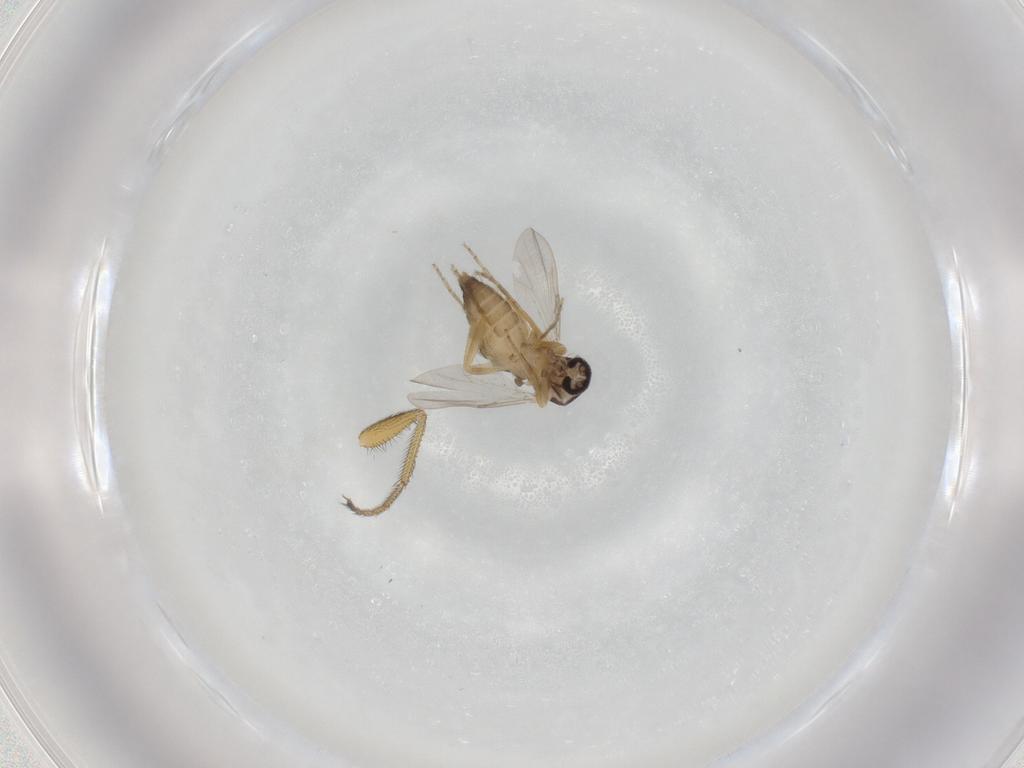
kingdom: Animalia
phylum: Arthropoda
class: Insecta
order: Diptera
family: Ceratopogonidae
